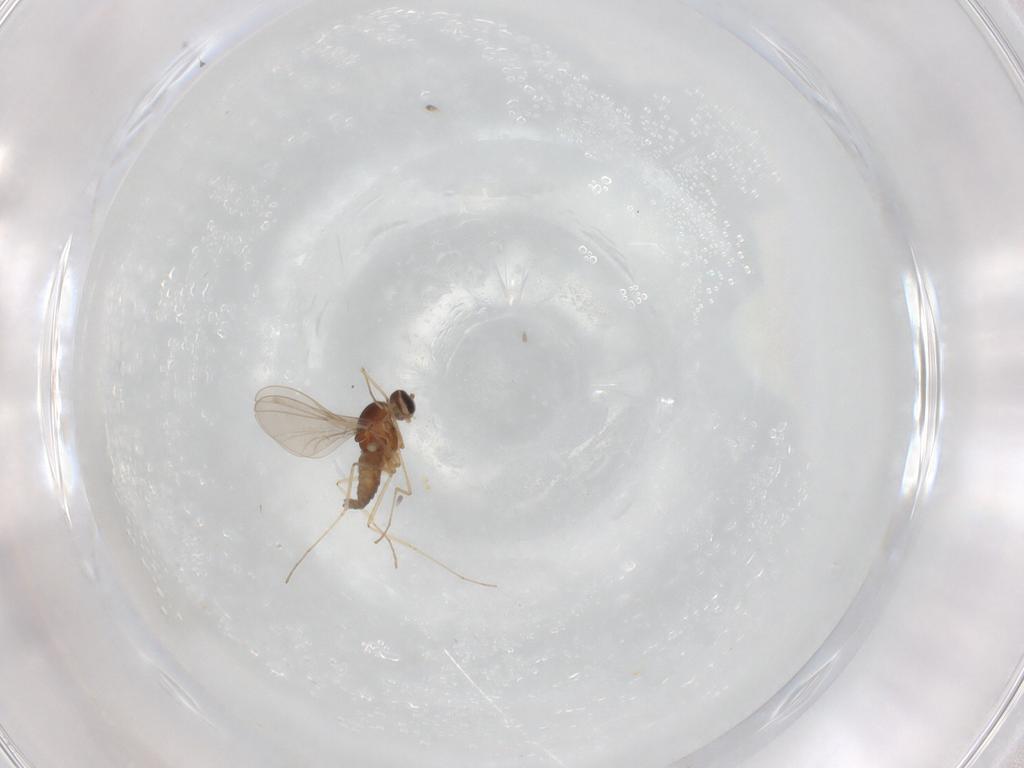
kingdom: Animalia
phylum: Arthropoda
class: Insecta
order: Diptera
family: Cecidomyiidae
